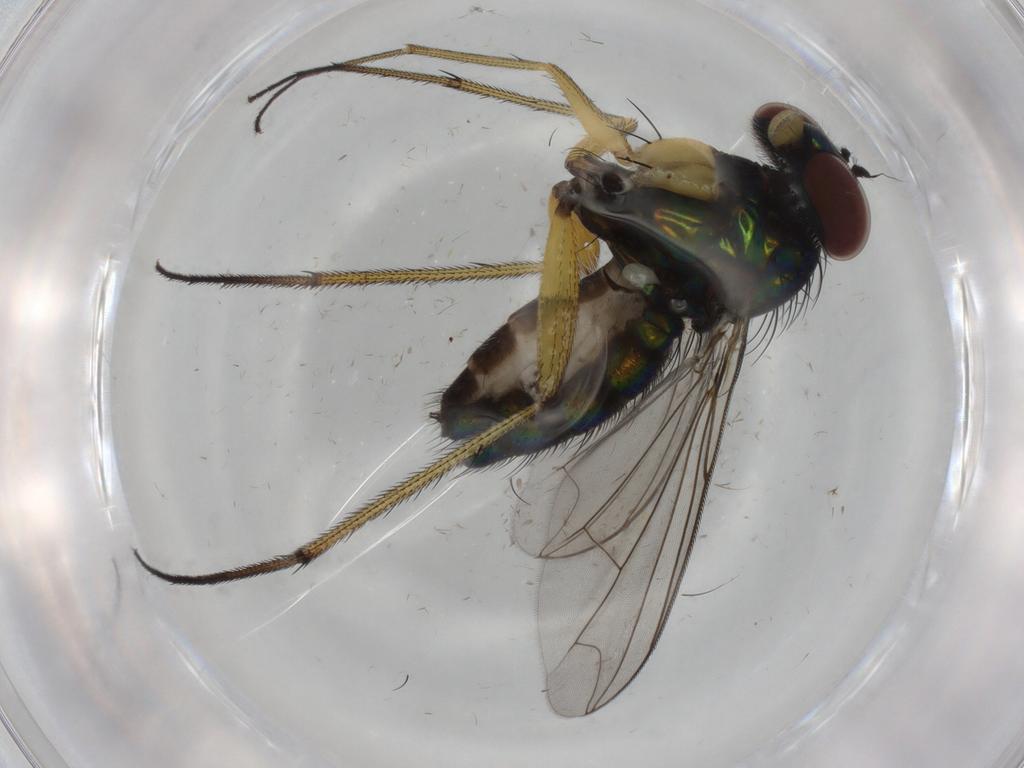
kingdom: Animalia
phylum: Arthropoda
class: Insecta
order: Diptera
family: Dolichopodidae
